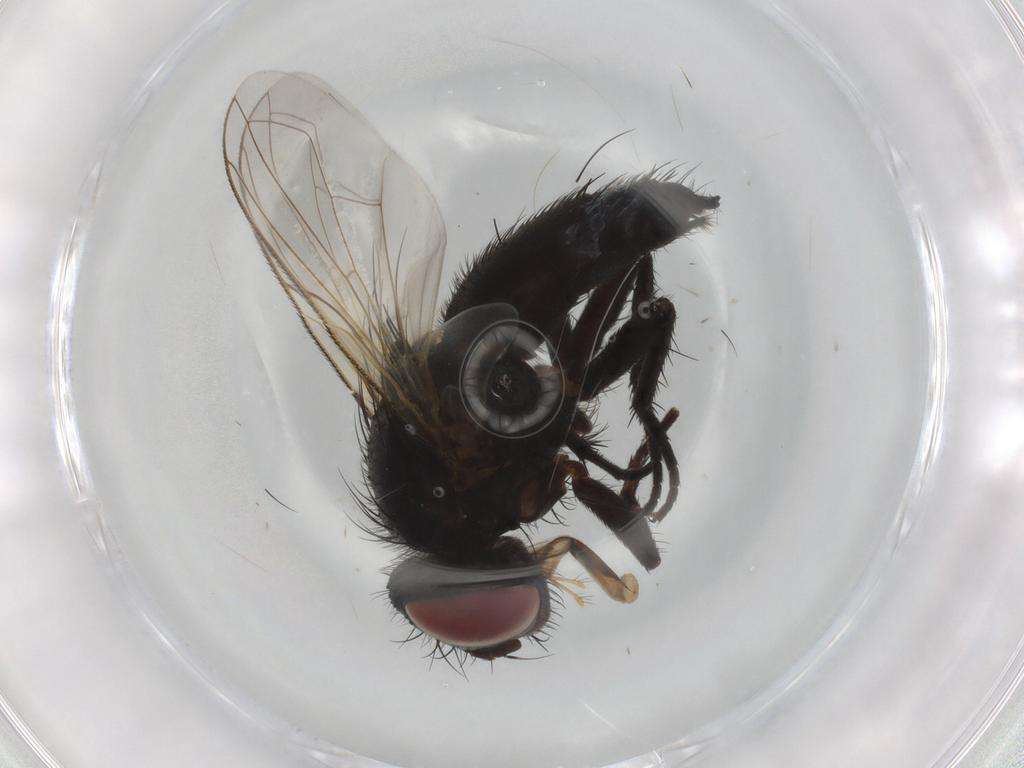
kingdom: Animalia
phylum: Arthropoda
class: Insecta
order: Diptera
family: Tachinidae
